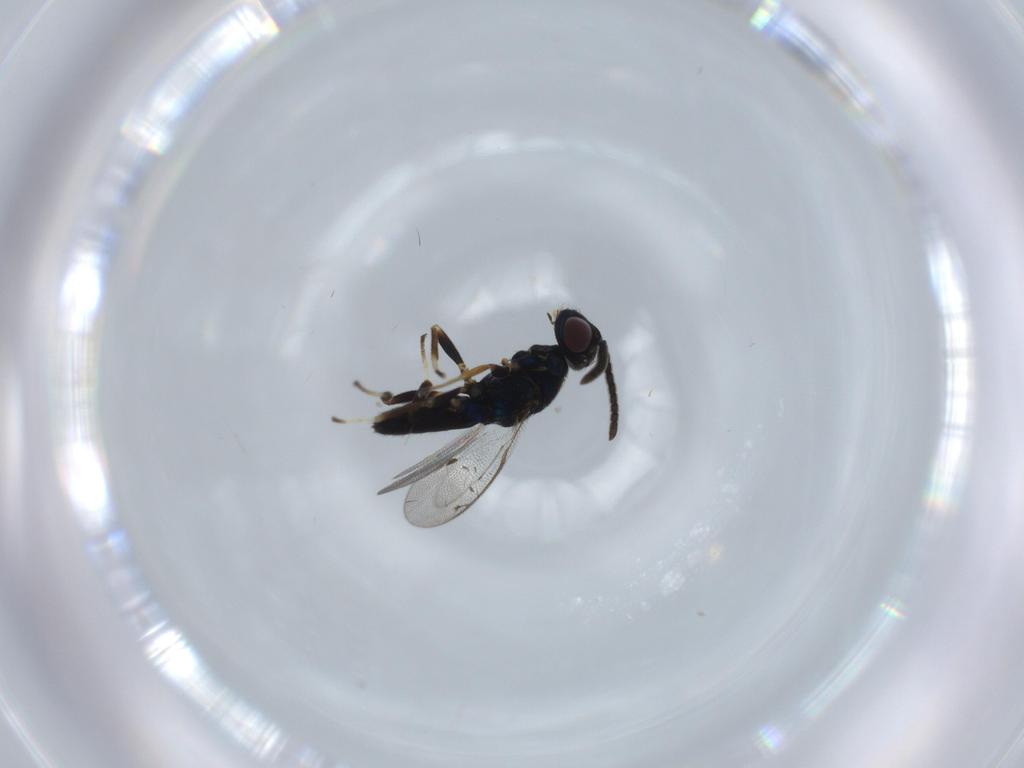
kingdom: Animalia
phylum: Arthropoda
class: Insecta
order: Hymenoptera
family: Eupelmidae
